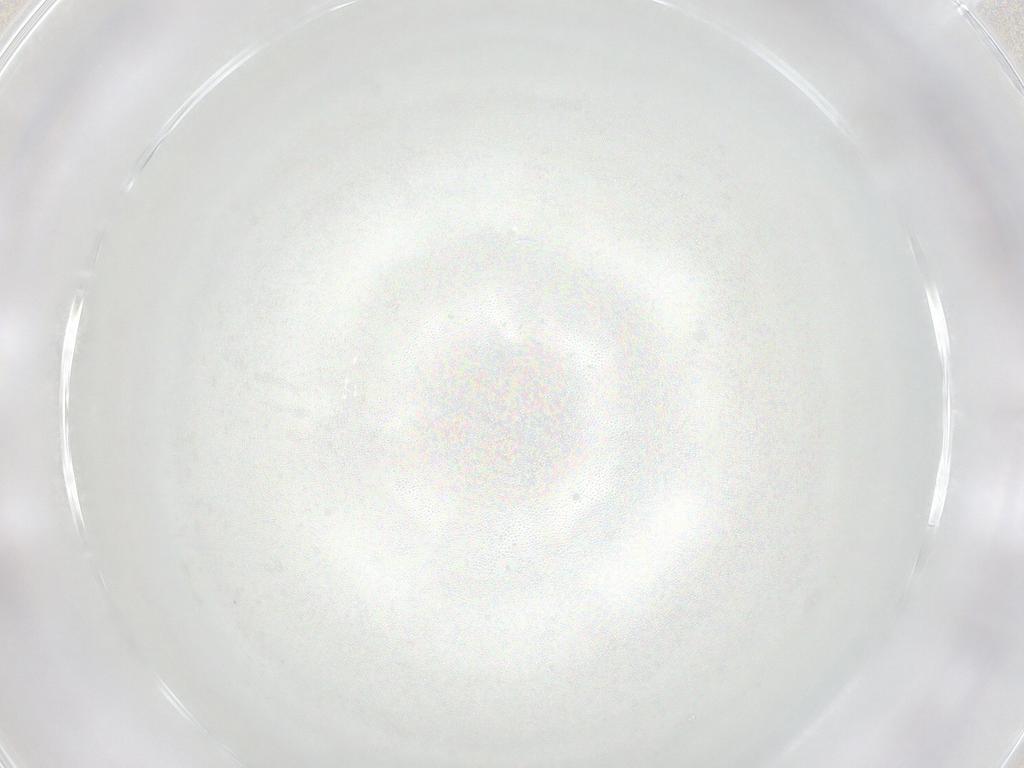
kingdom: Animalia
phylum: Arthropoda
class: Collembola
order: Entomobryomorpha
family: Entomobryidae
